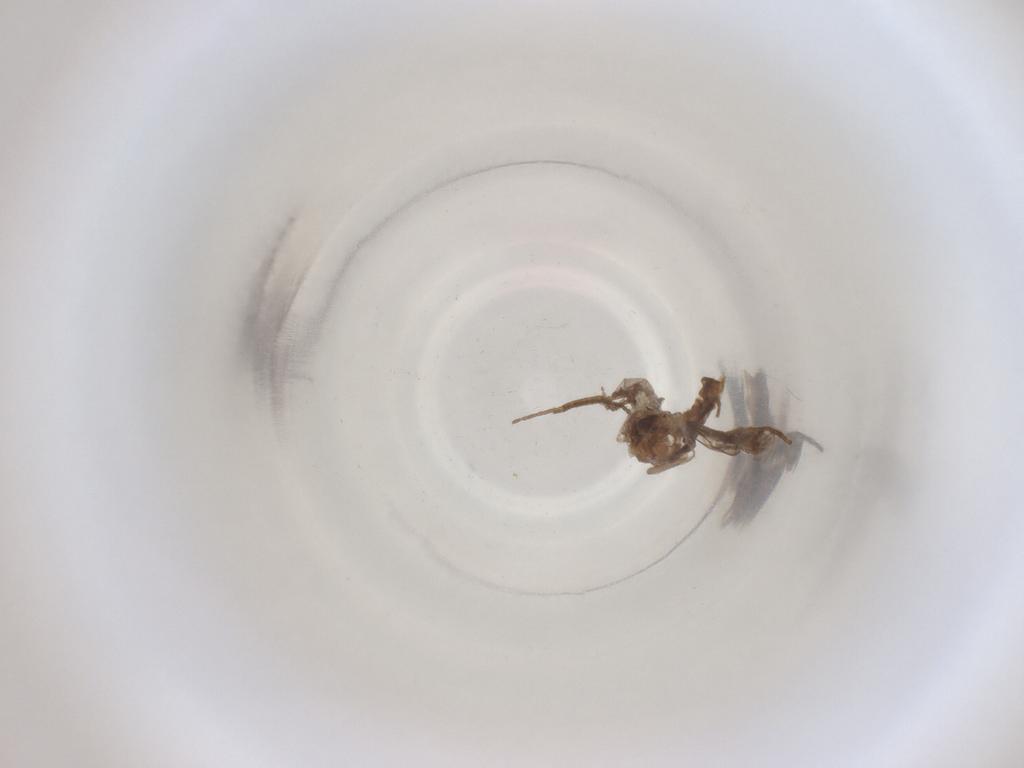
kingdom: Animalia
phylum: Arthropoda
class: Insecta
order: Diptera
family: Cecidomyiidae
